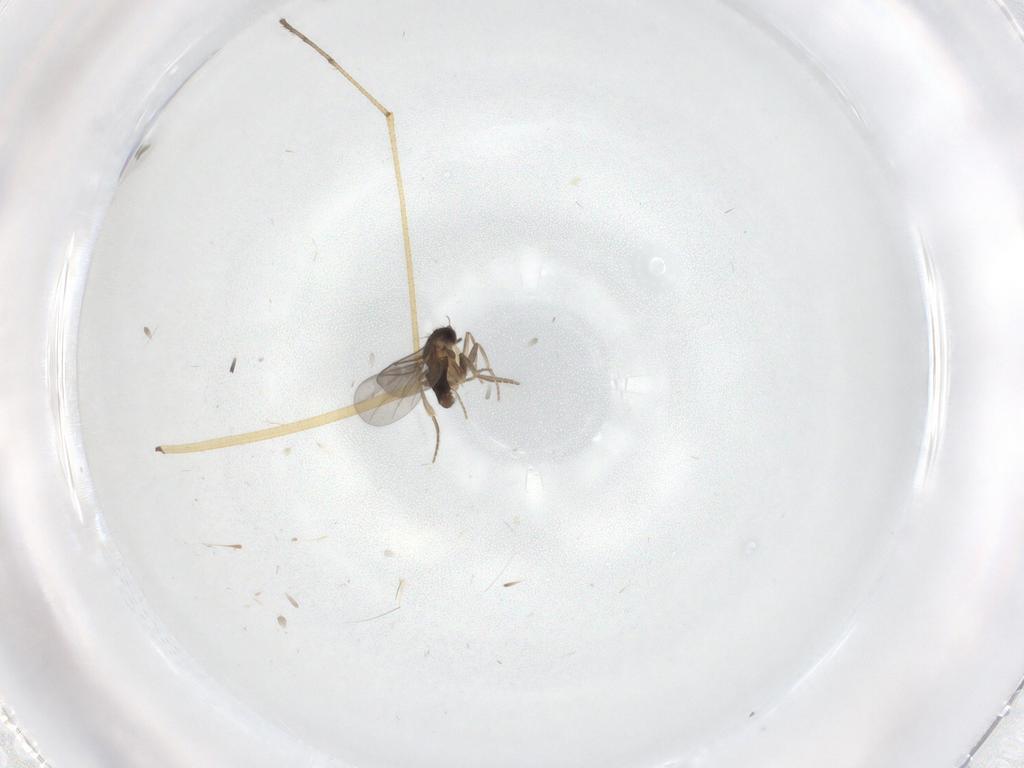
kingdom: Animalia
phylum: Arthropoda
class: Insecta
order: Diptera
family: Limoniidae
